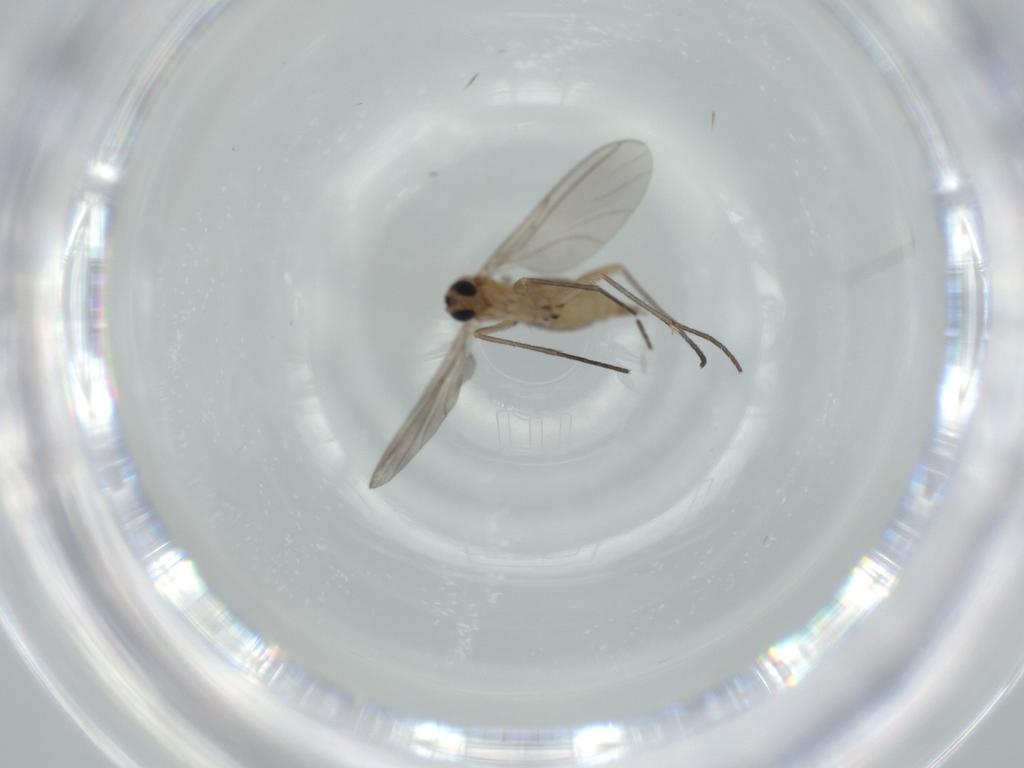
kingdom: Animalia
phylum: Arthropoda
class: Insecta
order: Diptera
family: Sciaridae
